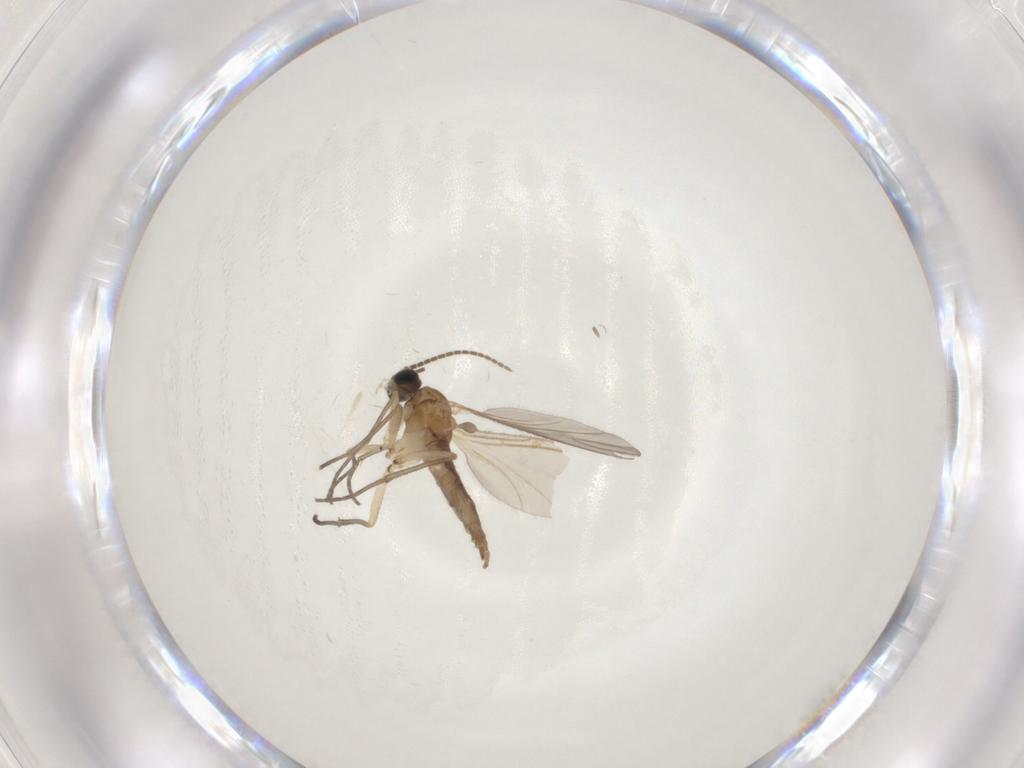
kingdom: Animalia
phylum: Arthropoda
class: Insecta
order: Diptera
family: Sciaridae
